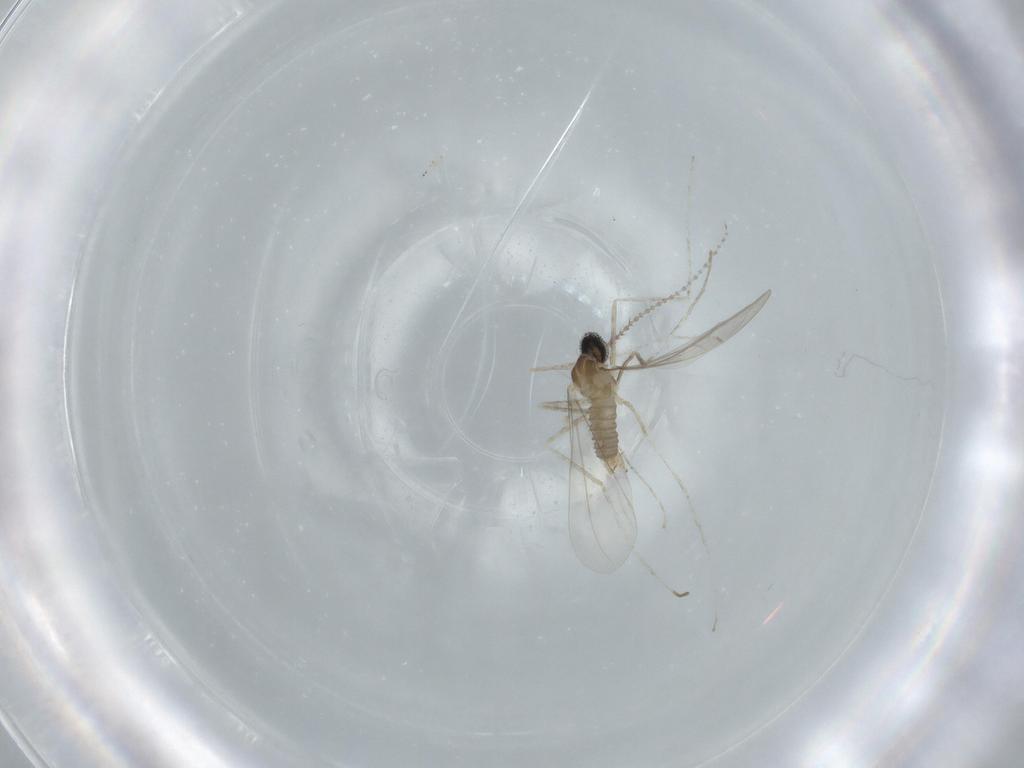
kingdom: Animalia
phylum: Arthropoda
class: Insecta
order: Diptera
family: Cecidomyiidae
